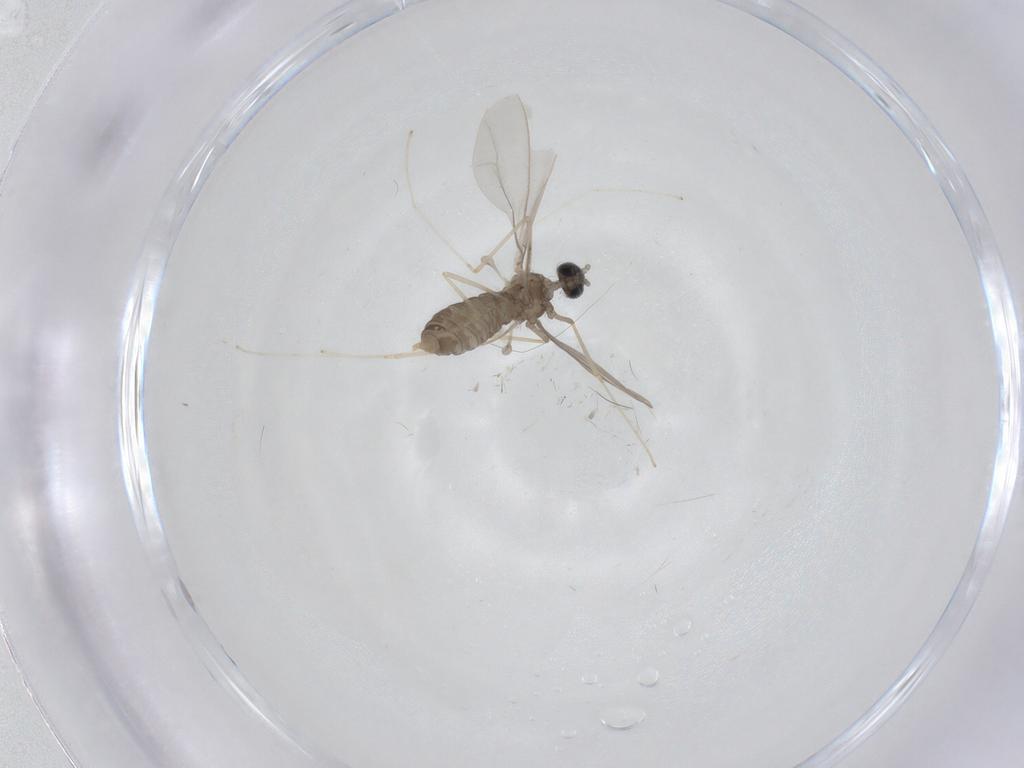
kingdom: Animalia
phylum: Arthropoda
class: Insecta
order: Diptera
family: Cecidomyiidae
